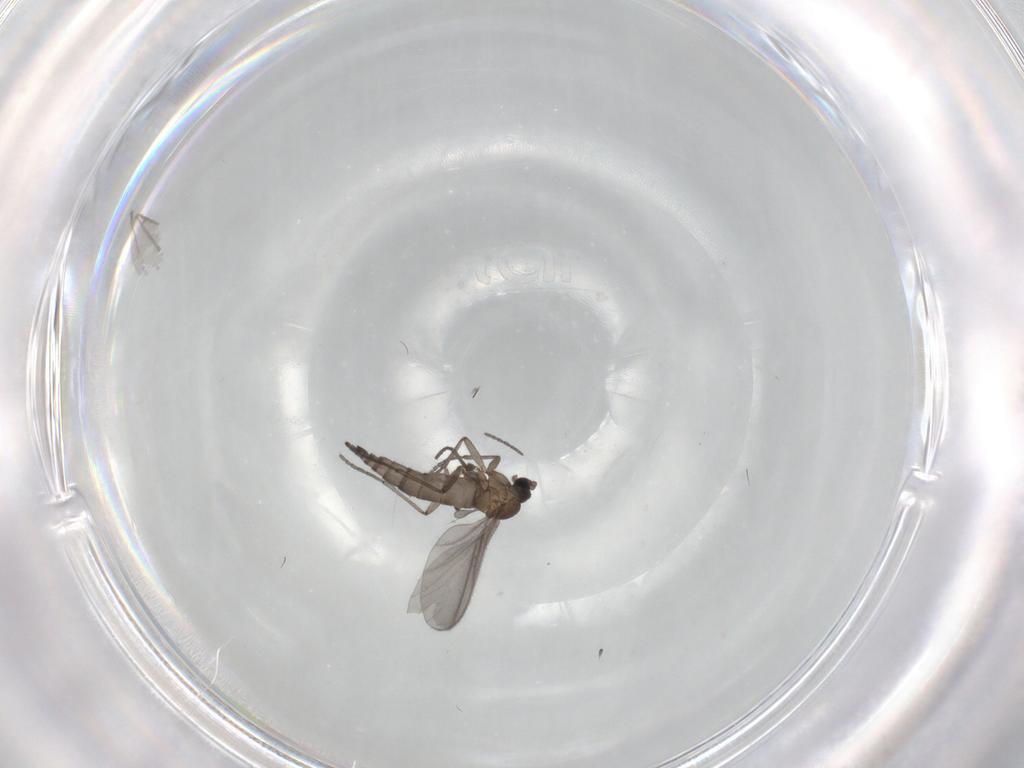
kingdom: Animalia
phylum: Arthropoda
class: Insecta
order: Diptera
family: Sciaridae
